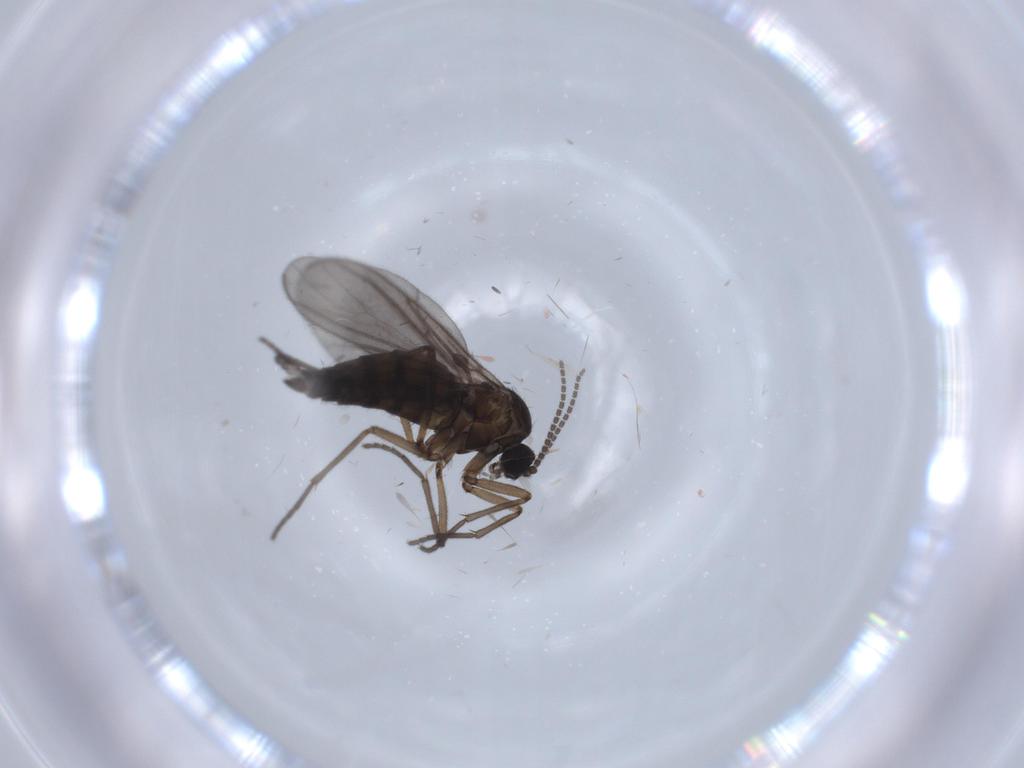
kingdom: Animalia
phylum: Arthropoda
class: Insecta
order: Diptera
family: Sciaridae
